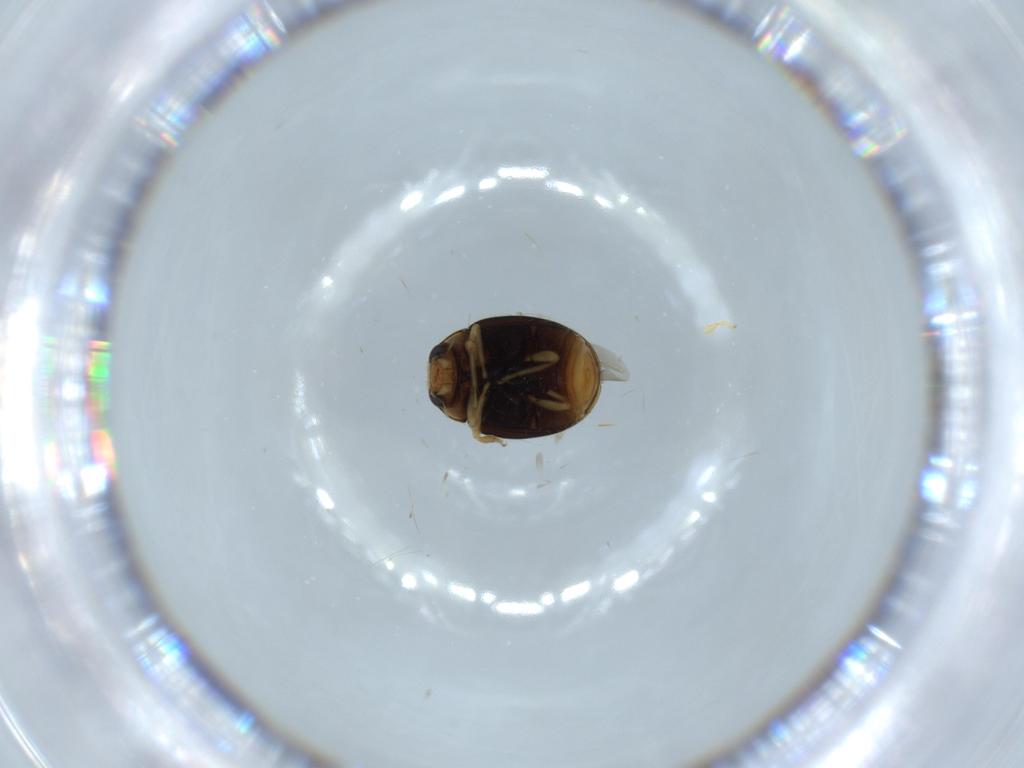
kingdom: Animalia
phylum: Arthropoda
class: Insecta
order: Coleoptera
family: Chrysomelidae
